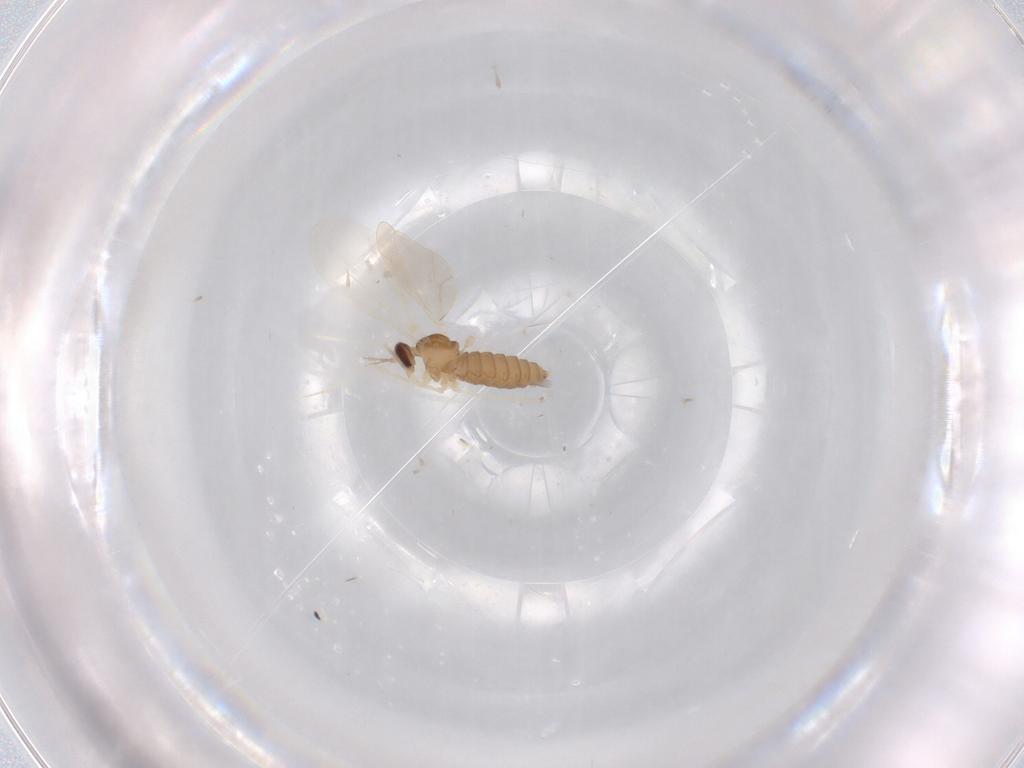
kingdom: Animalia
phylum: Arthropoda
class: Insecta
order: Diptera
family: Cecidomyiidae
